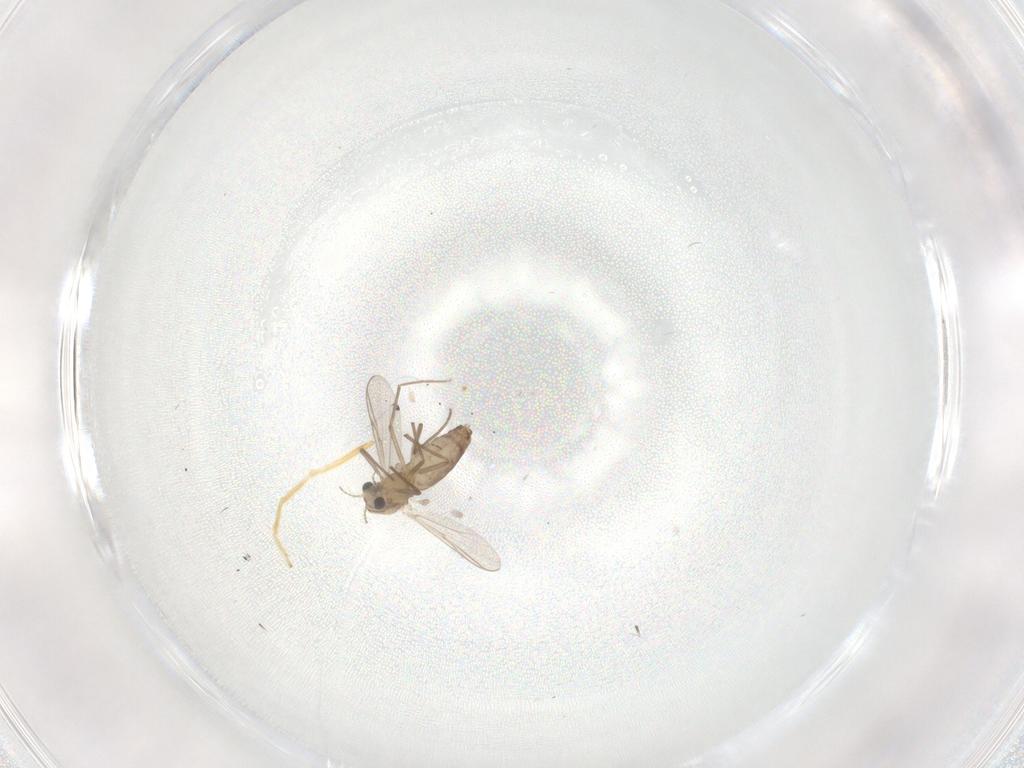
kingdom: Animalia
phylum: Arthropoda
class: Insecta
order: Diptera
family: Chironomidae
